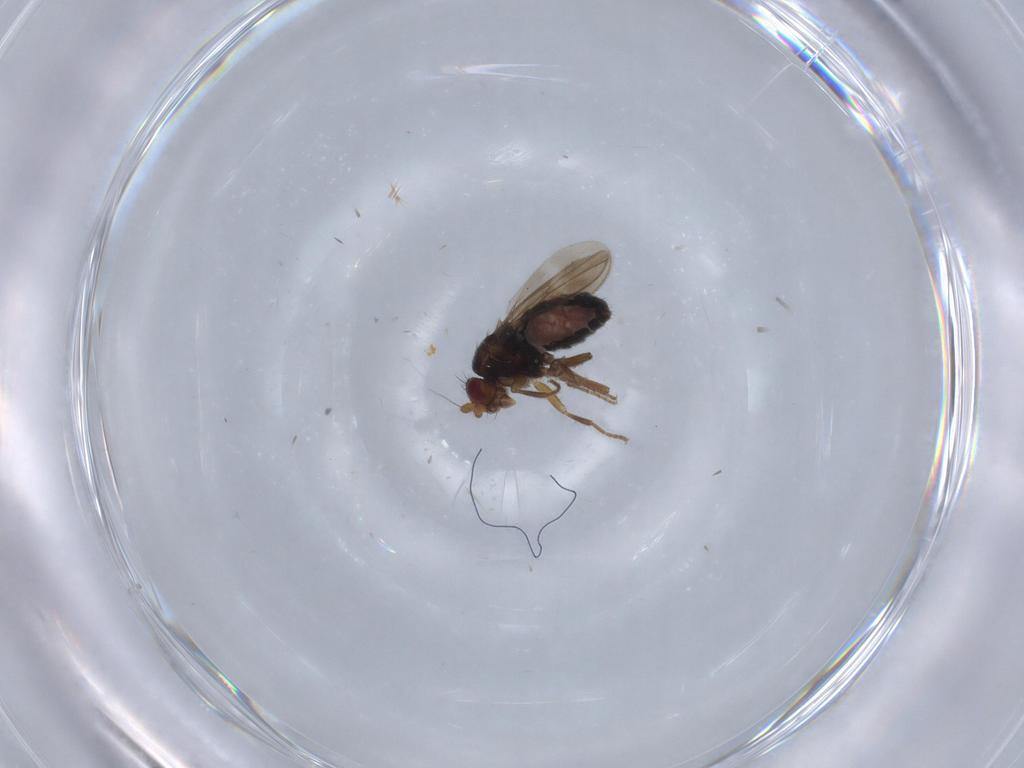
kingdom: Animalia
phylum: Arthropoda
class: Insecta
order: Diptera
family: Sphaeroceridae
